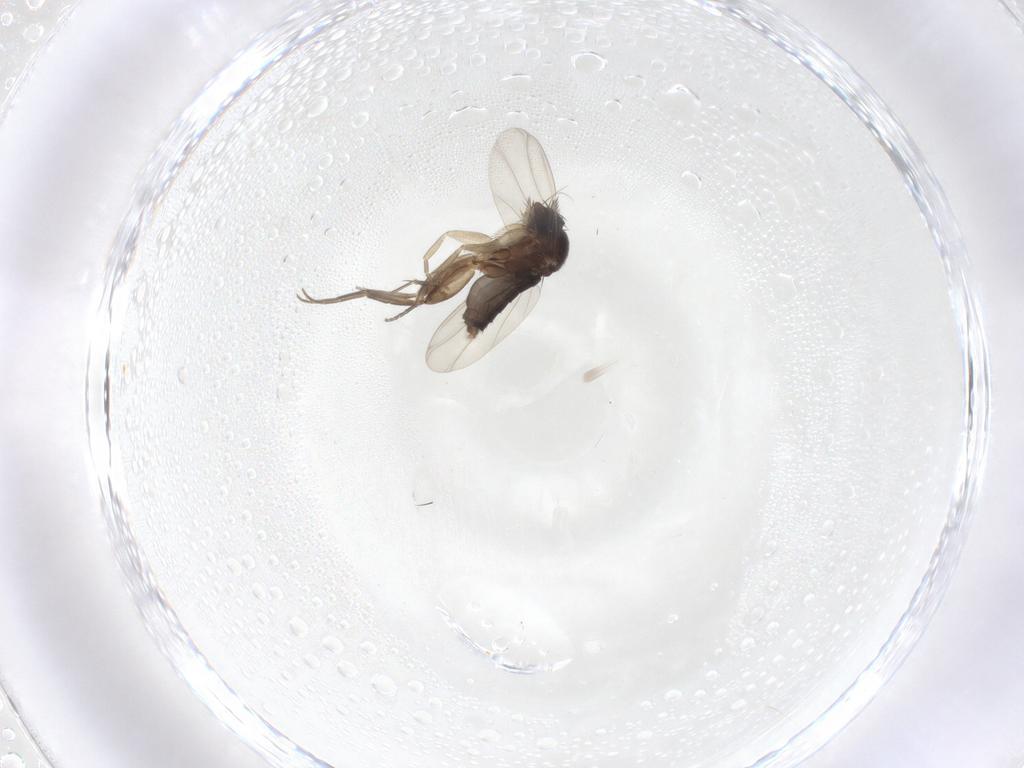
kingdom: Animalia
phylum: Arthropoda
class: Insecta
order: Diptera
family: Phoridae
